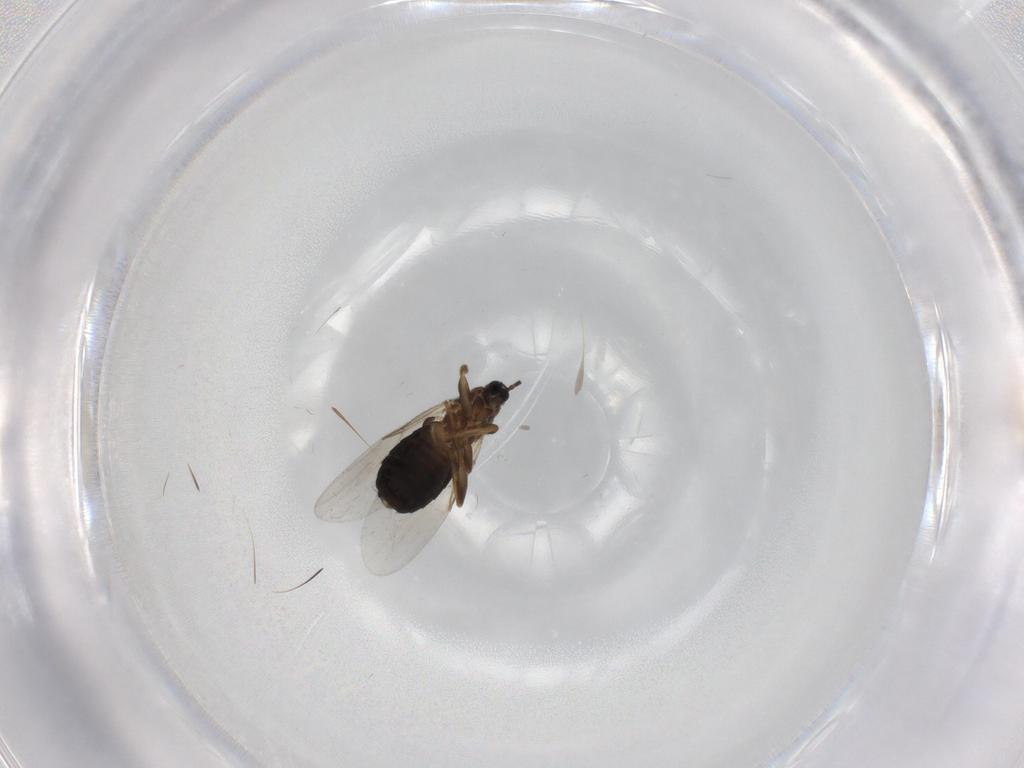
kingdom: Animalia
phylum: Arthropoda
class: Insecta
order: Diptera
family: Scatopsidae
